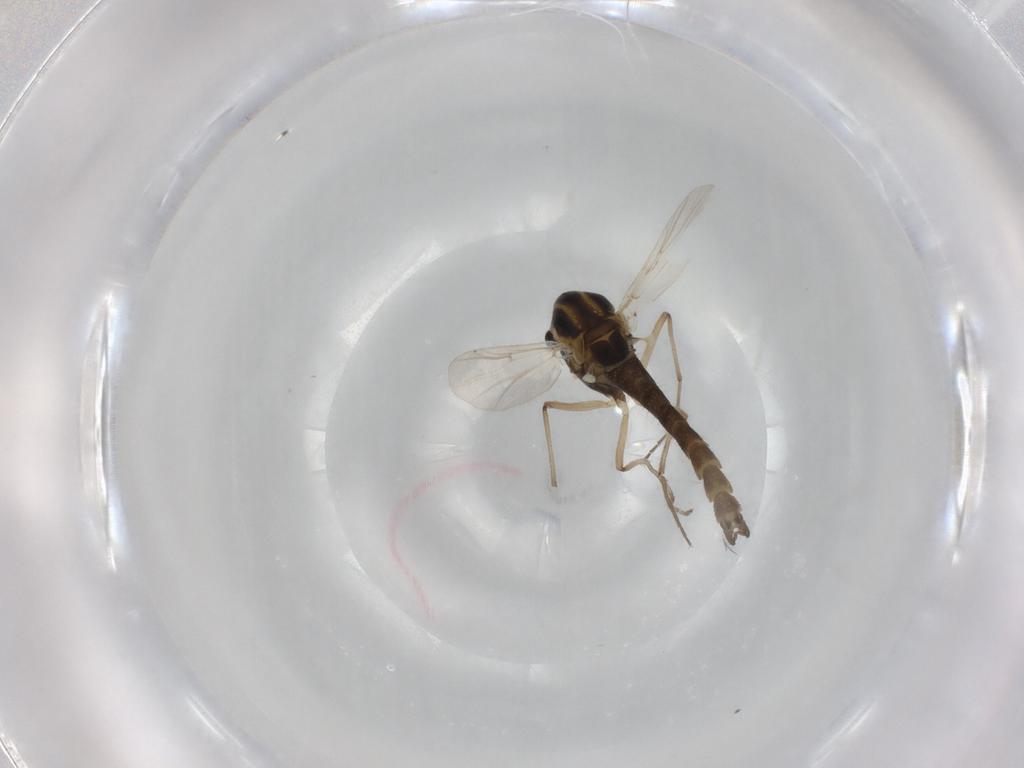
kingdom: Animalia
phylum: Arthropoda
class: Insecta
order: Diptera
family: Chironomidae
